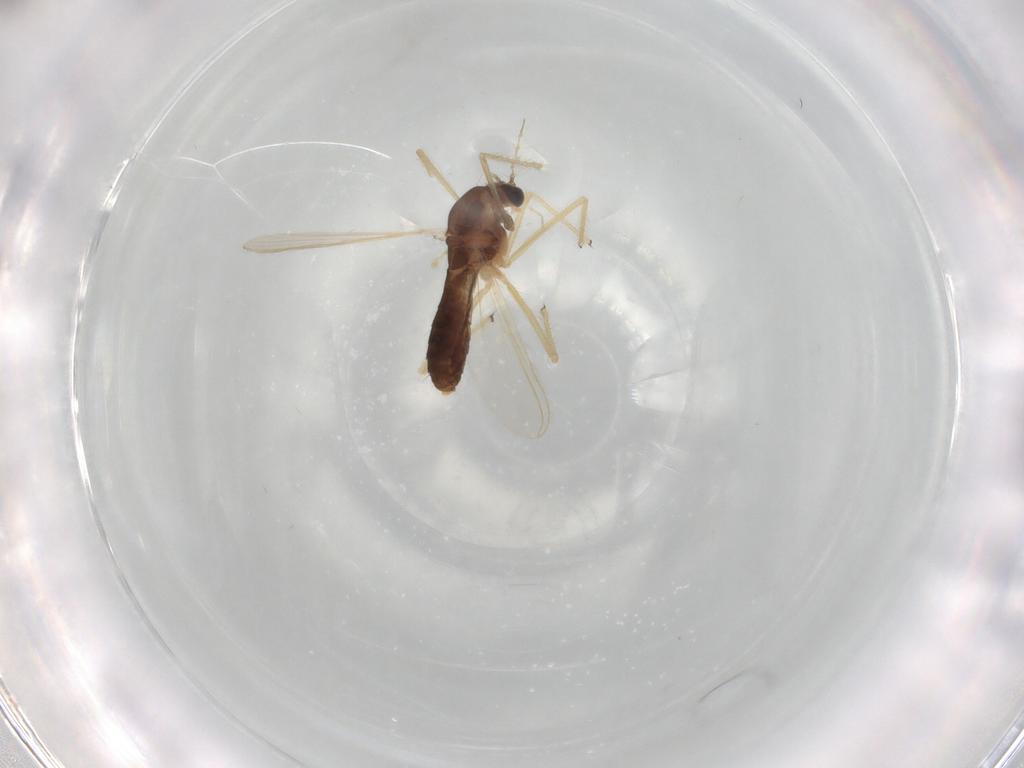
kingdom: Animalia
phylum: Arthropoda
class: Insecta
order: Diptera
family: Chironomidae
